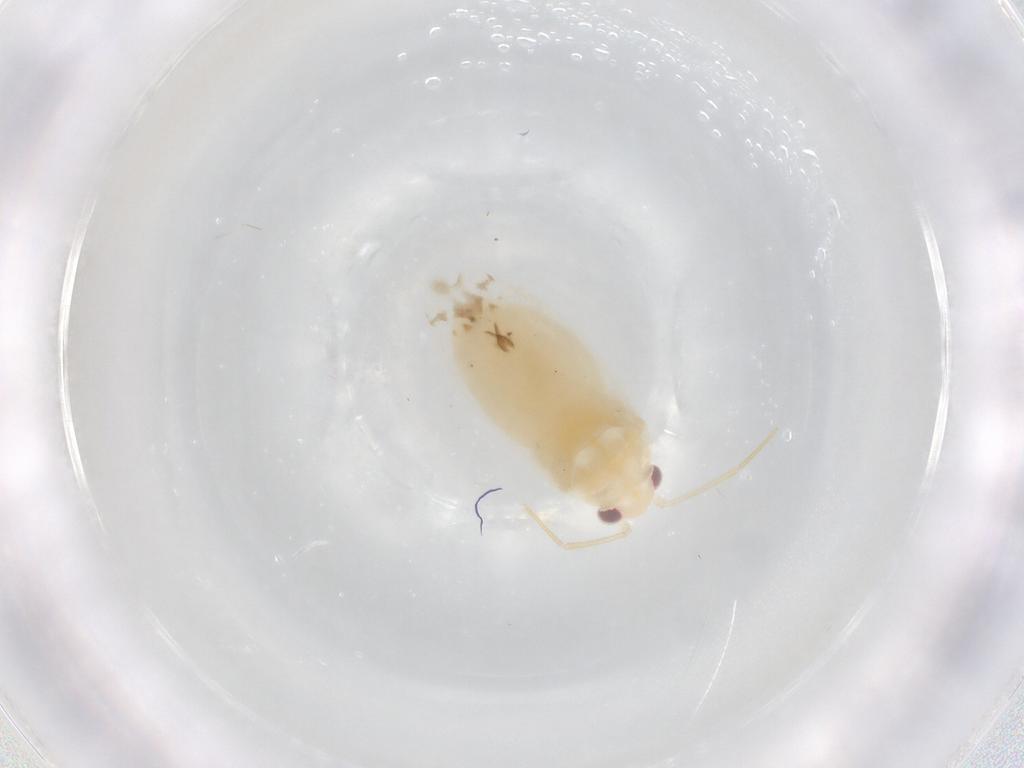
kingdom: Animalia
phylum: Arthropoda
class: Insecta
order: Hemiptera
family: Miridae
